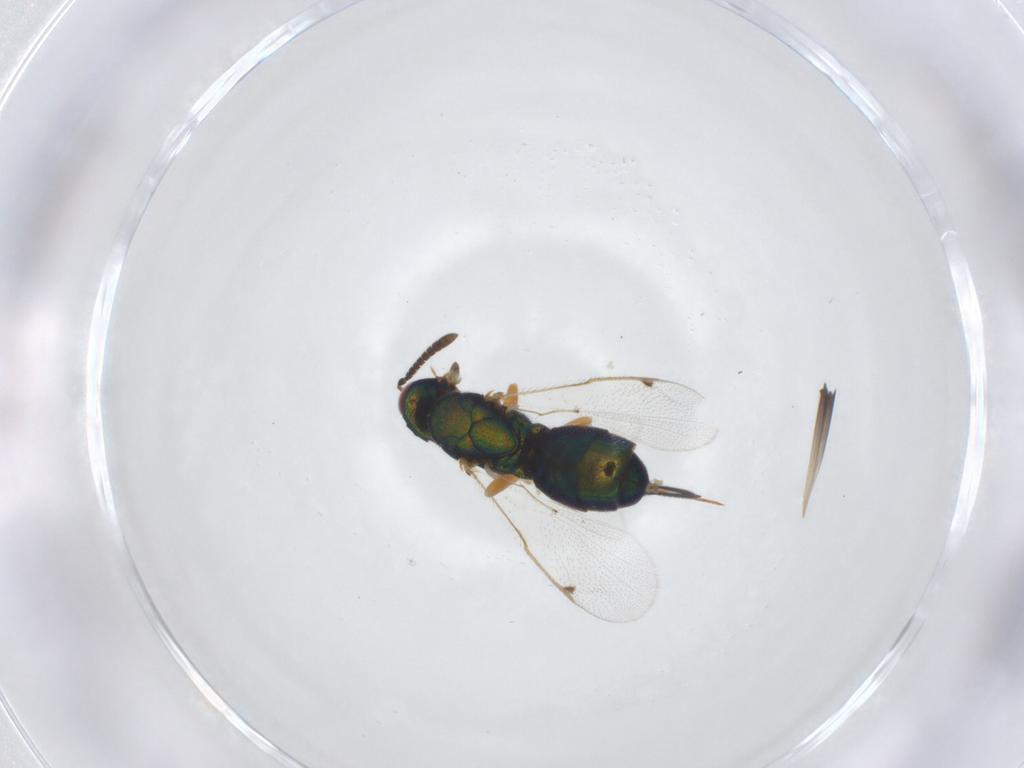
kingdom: Animalia
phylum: Arthropoda
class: Insecta
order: Hymenoptera
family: Torymidae
